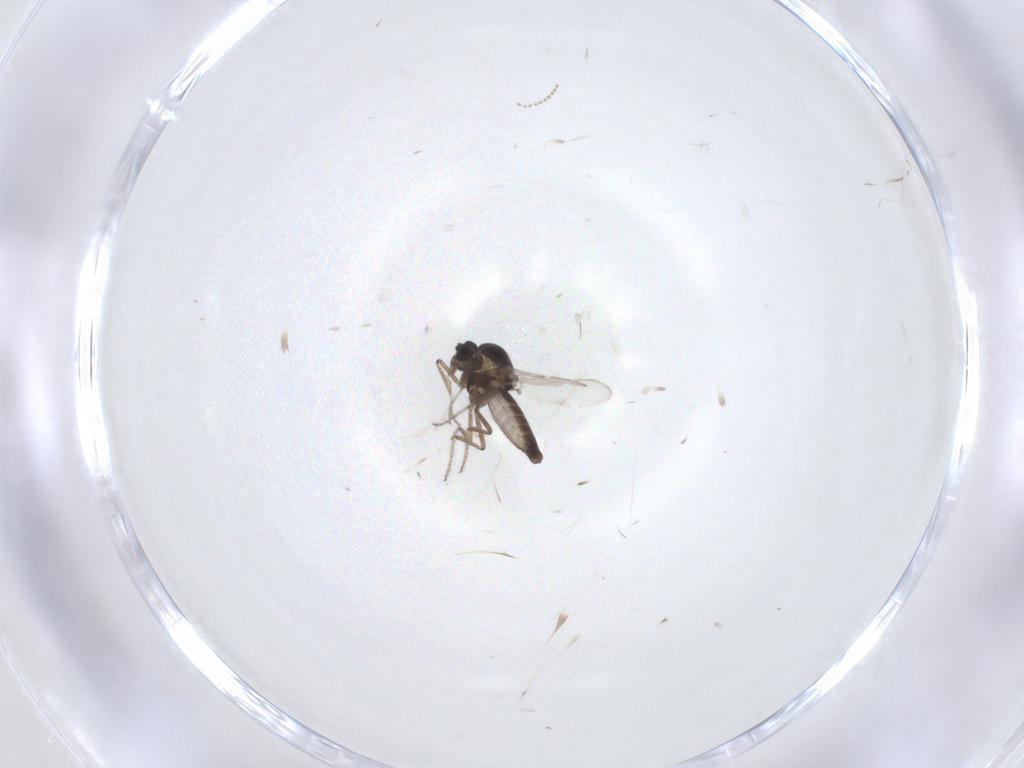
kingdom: Animalia
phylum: Arthropoda
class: Insecta
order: Diptera
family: Ceratopogonidae
